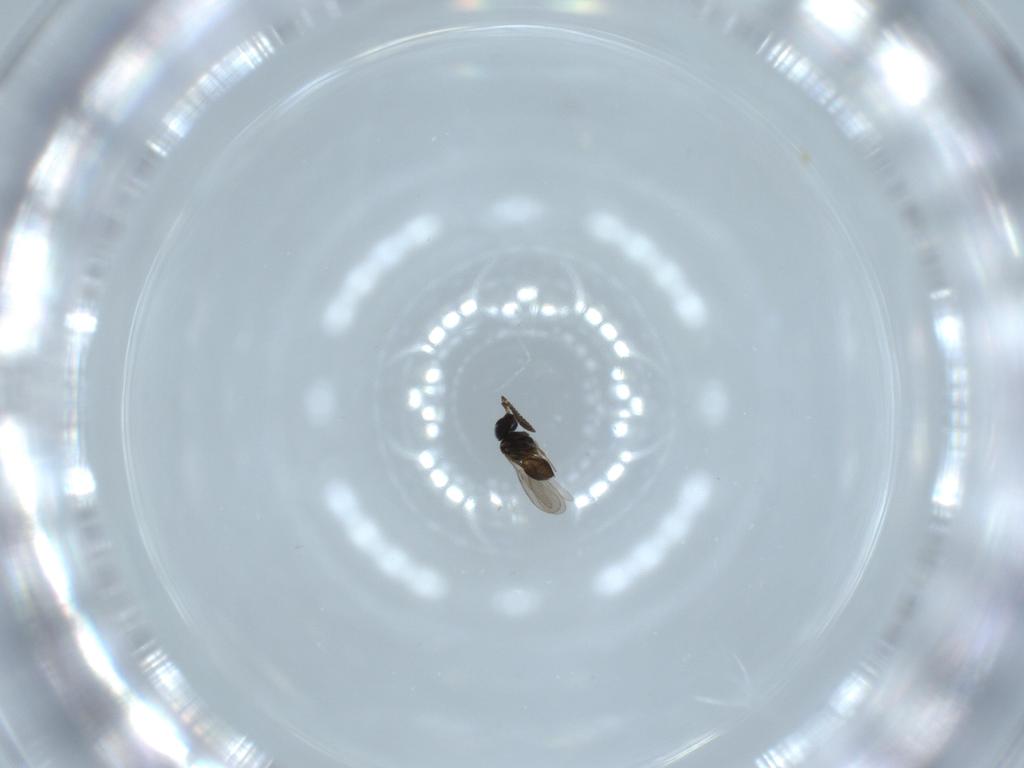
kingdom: Animalia
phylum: Arthropoda
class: Insecta
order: Hymenoptera
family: Scelionidae
